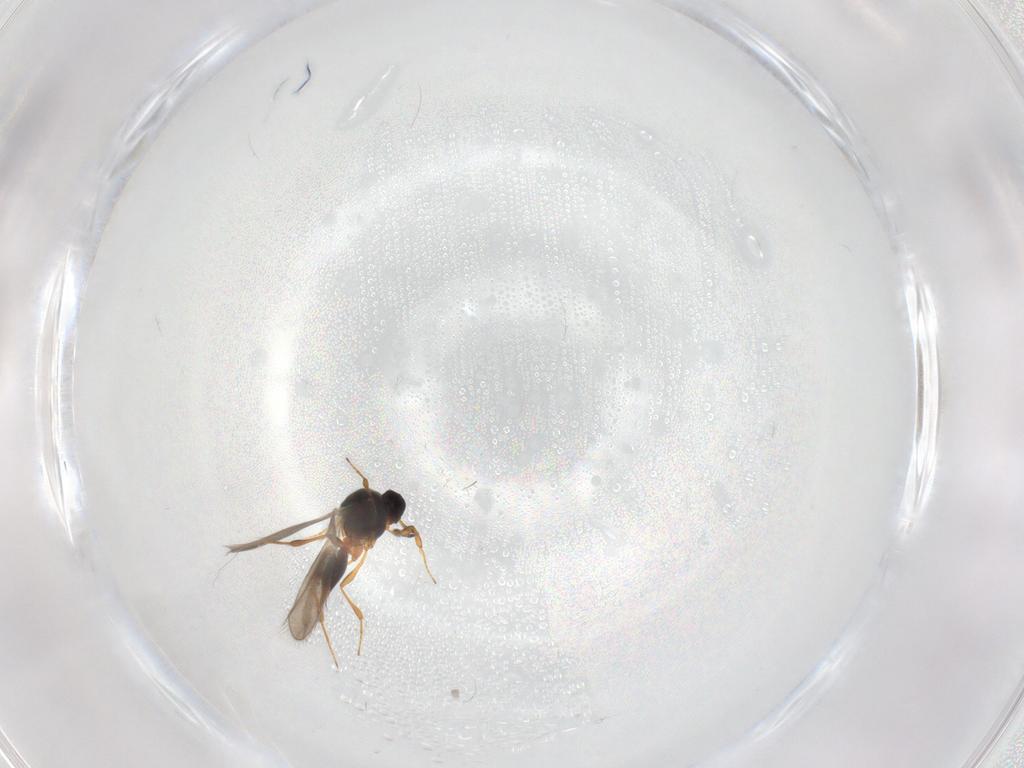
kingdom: Animalia
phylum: Arthropoda
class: Insecta
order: Hymenoptera
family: Platygastridae
